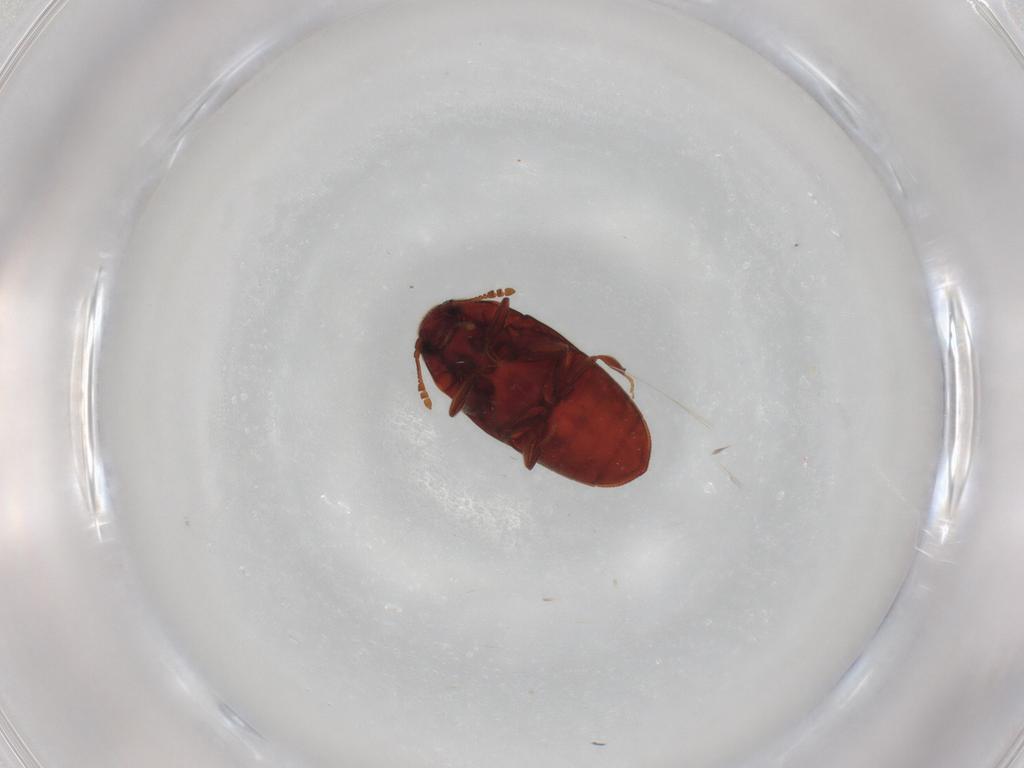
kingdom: Animalia
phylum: Arthropoda
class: Insecta
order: Coleoptera
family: Throscidae
